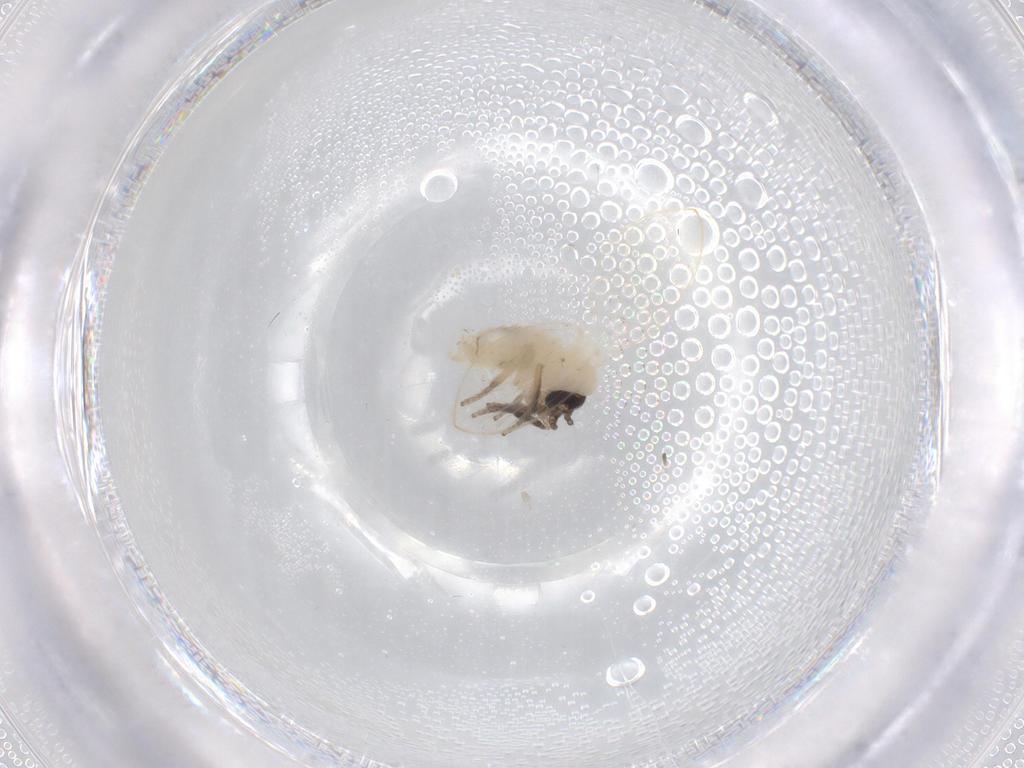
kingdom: Animalia
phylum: Arthropoda
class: Insecta
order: Diptera
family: Psychodidae
